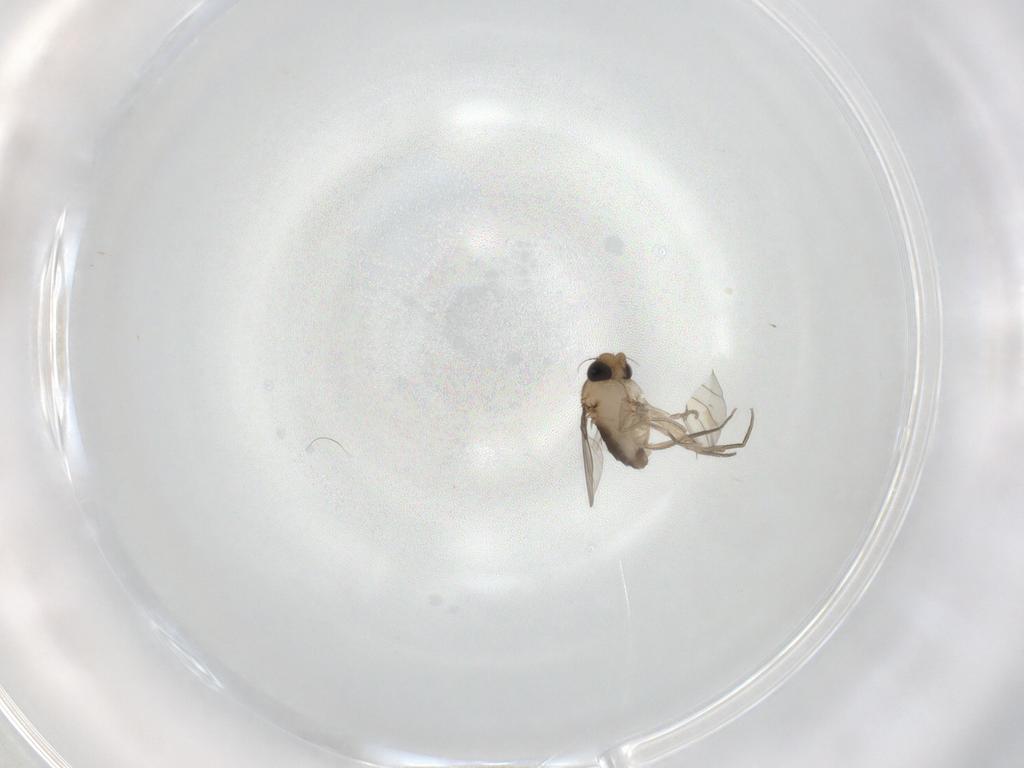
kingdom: Animalia
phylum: Arthropoda
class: Insecta
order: Diptera
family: Phoridae
